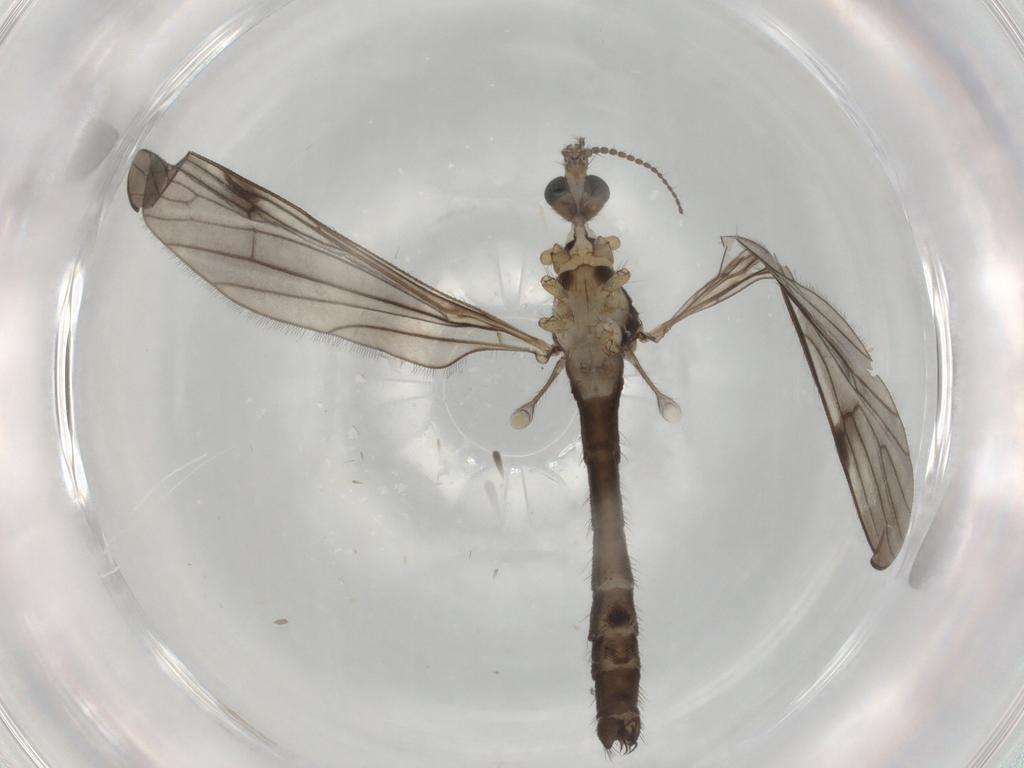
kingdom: Animalia
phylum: Arthropoda
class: Insecta
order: Diptera
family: Limoniidae
